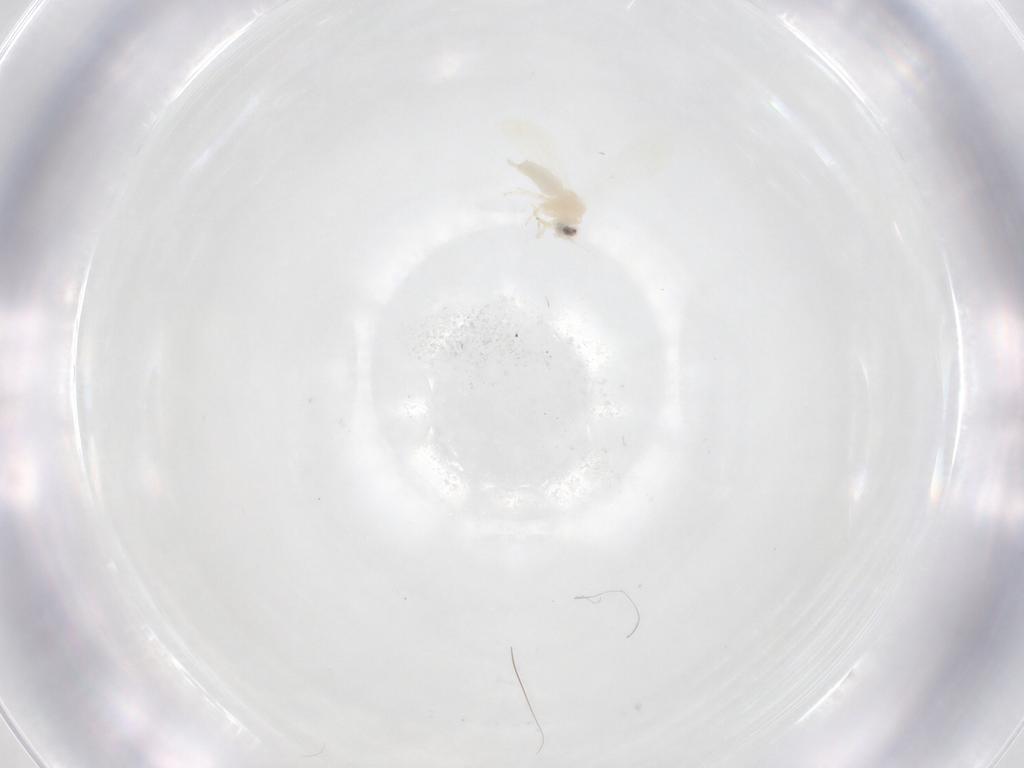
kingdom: Animalia
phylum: Arthropoda
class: Insecta
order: Hemiptera
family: Aleyrodidae
